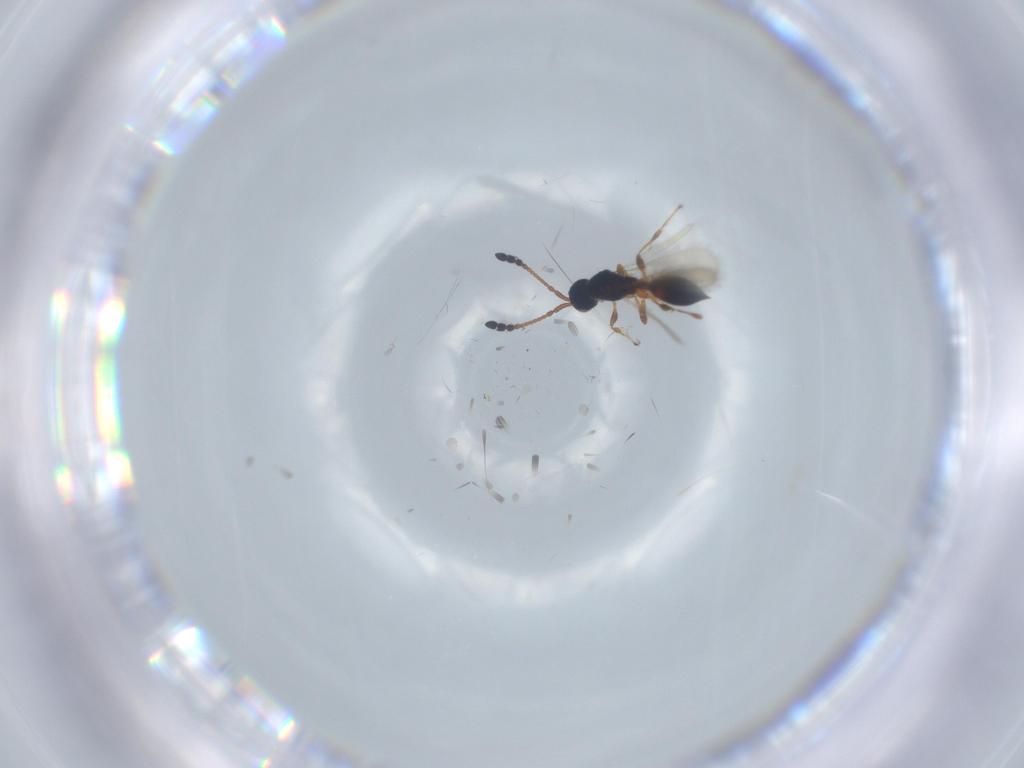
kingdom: Animalia
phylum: Arthropoda
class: Insecta
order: Hymenoptera
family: Diapriidae
